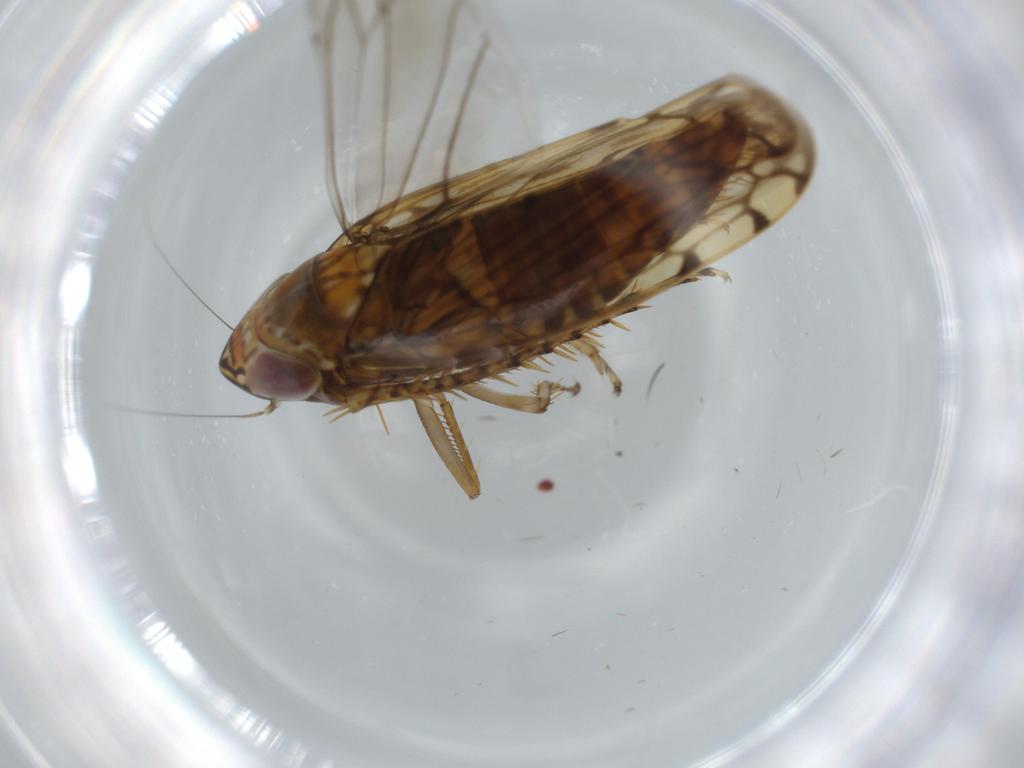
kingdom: Animalia
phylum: Arthropoda
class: Insecta
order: Hemiptera
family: Cicadellidae
